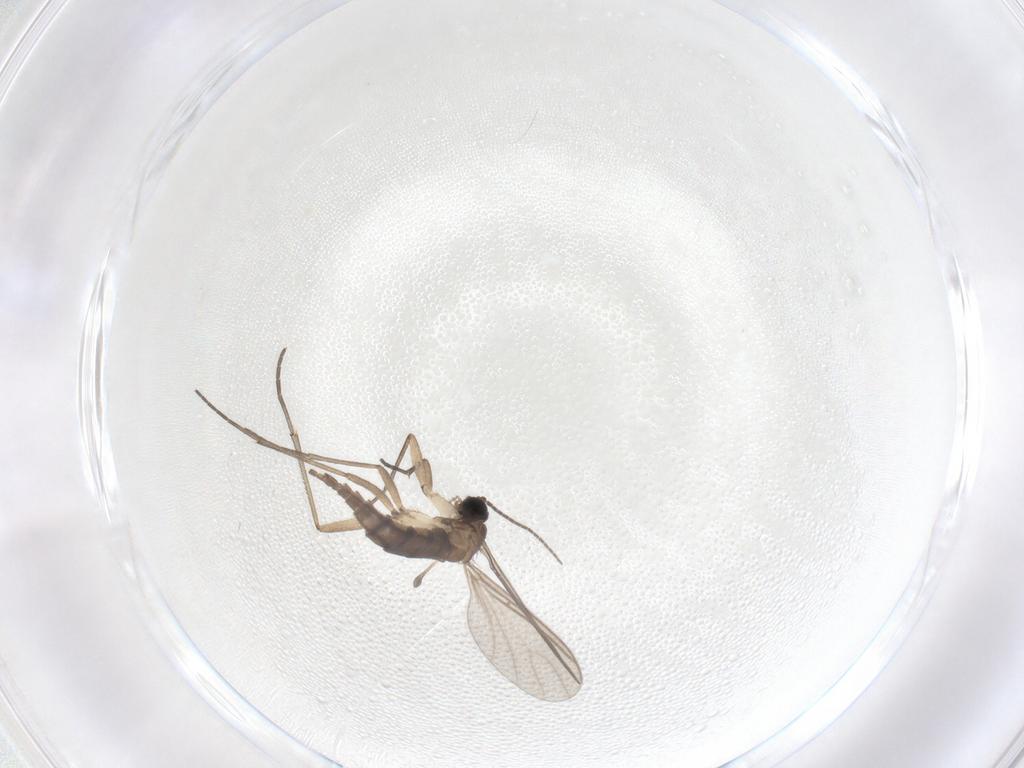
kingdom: Animalia
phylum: Arthropoda
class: Insecta
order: Diptera
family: Sciaridae
